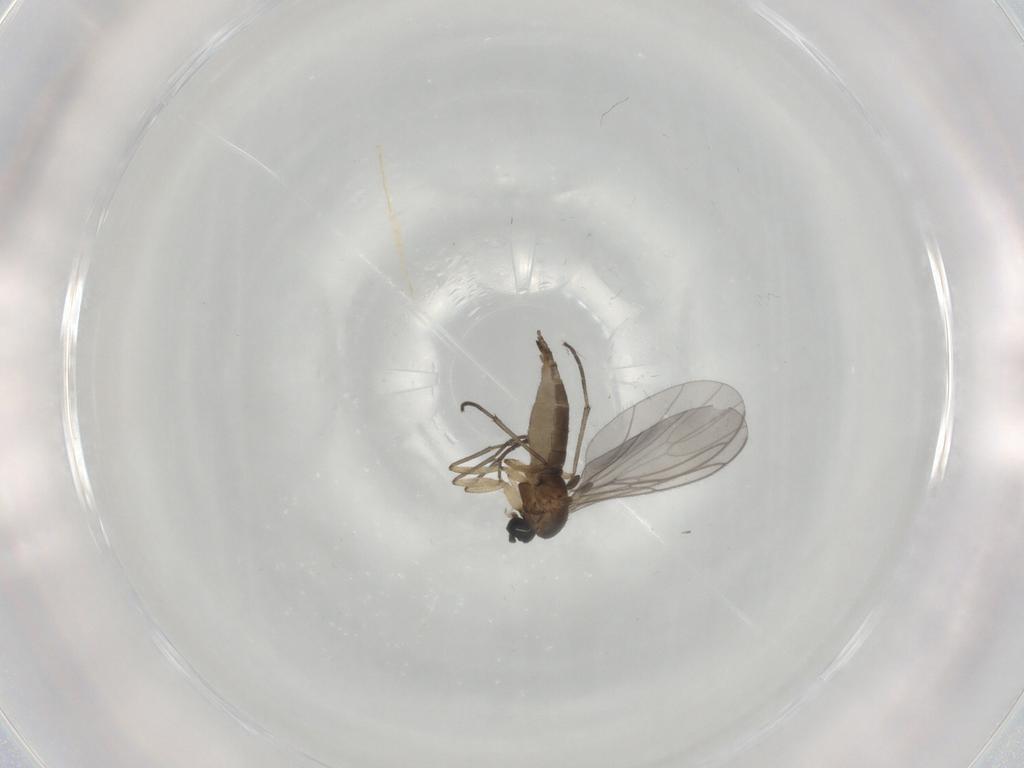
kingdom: Animalia
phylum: Arthropoda
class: Insecta
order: Diptera
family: Sciaridae
